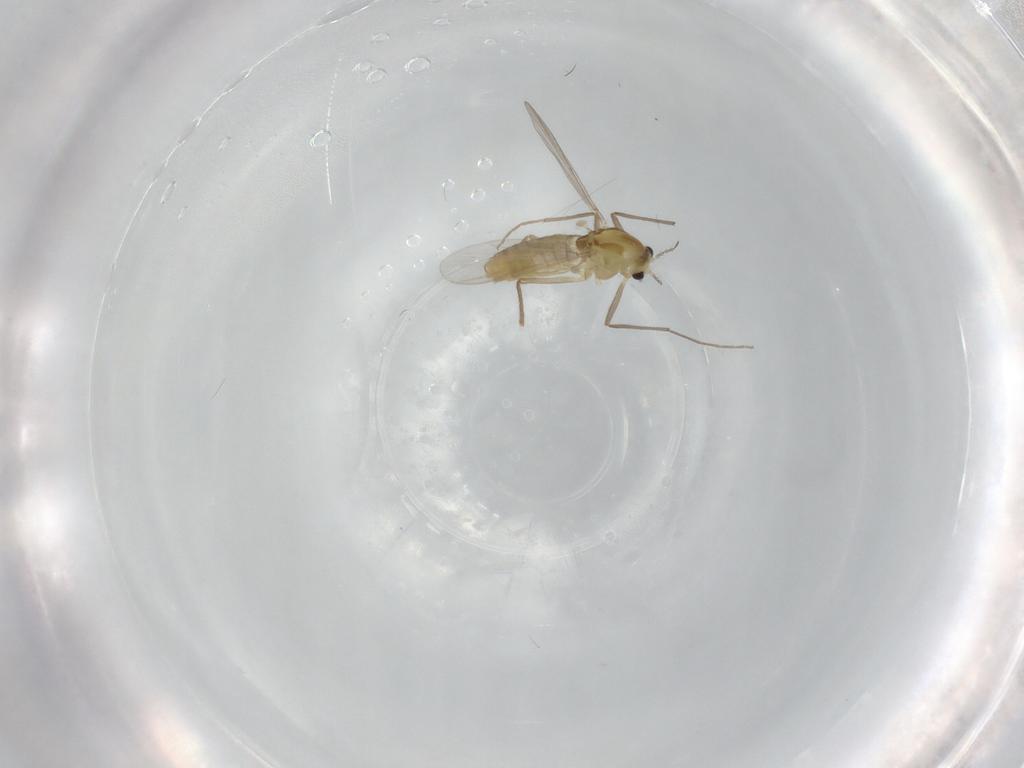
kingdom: Animalia
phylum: Arthropoda
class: Insecta
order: Diptera
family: Chironomidae
